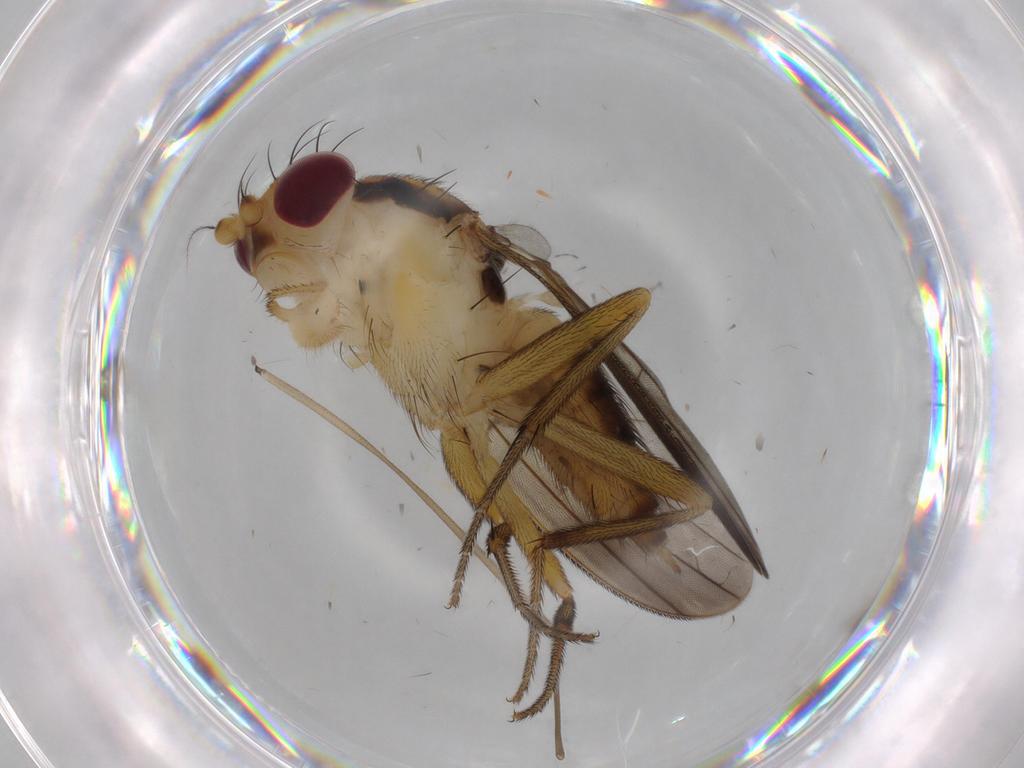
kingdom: Animalia
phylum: Arthropoda
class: Insecta
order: Diptera
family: Clusiidae
